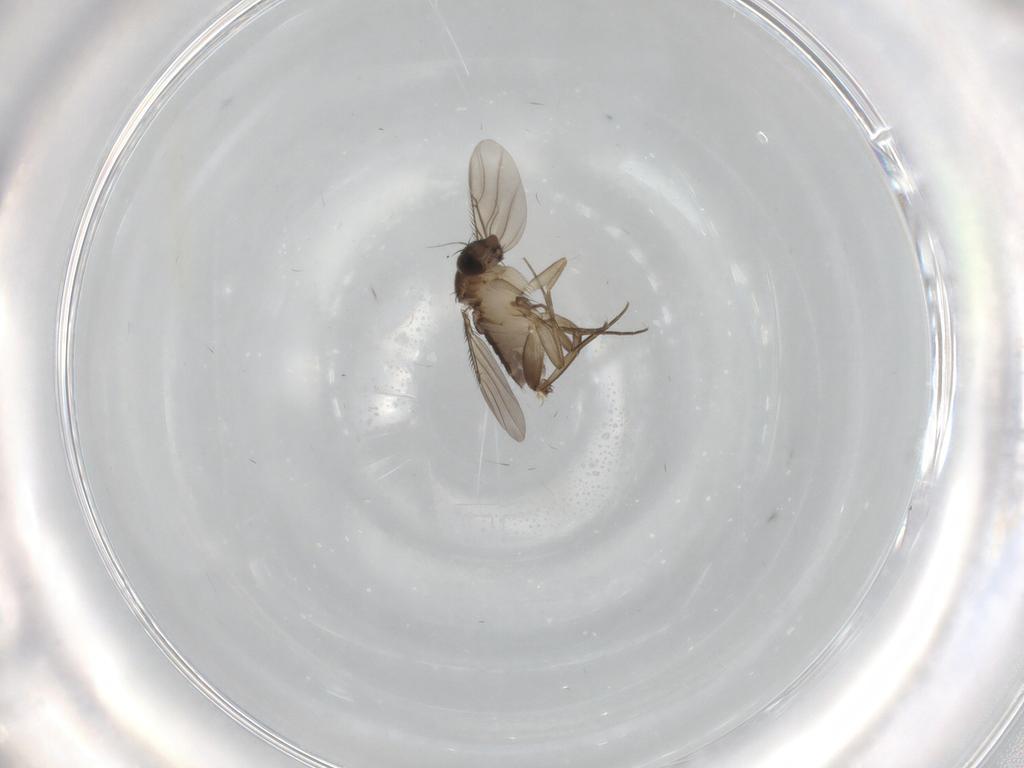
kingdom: Animalia
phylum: Arthropoda
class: Insecta
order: Diptera
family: Phoridae
